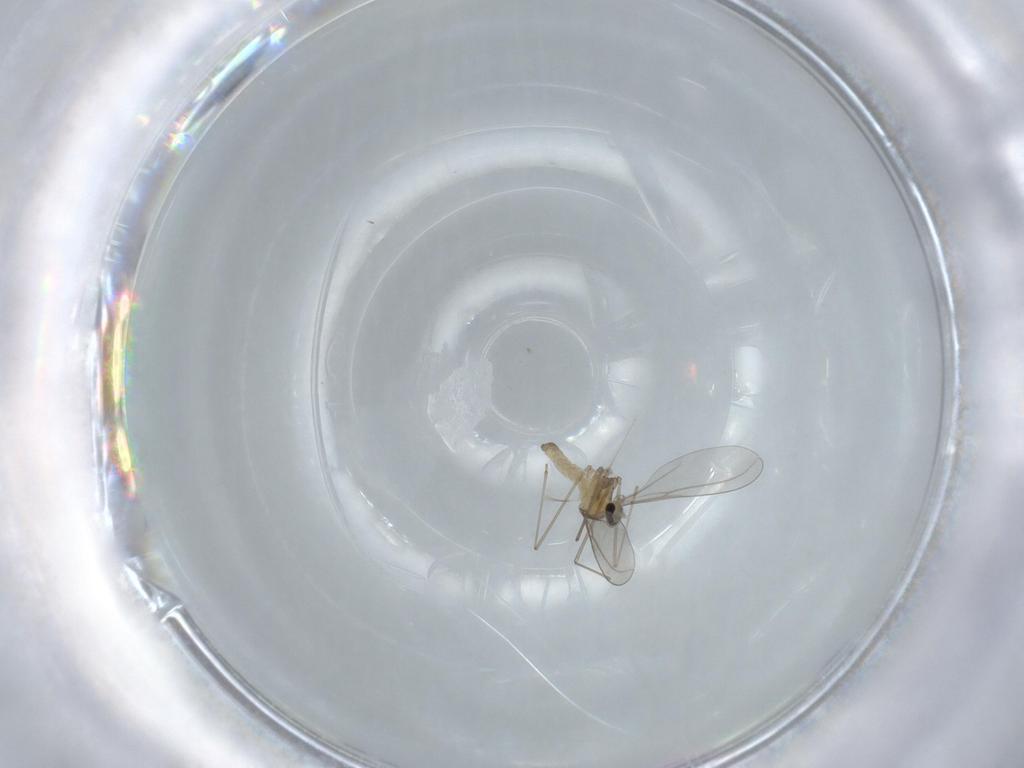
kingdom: Animalia
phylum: Arthropoda
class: Insecta
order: Diptera
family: Cecidomyiidae
